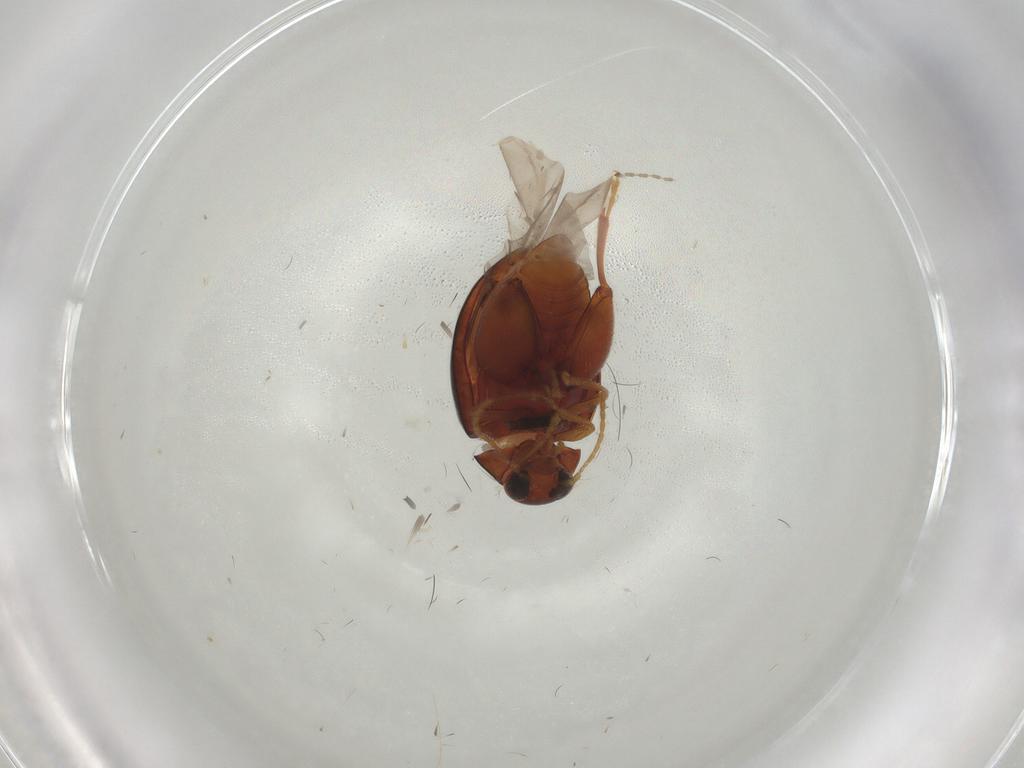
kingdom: Animalia
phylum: Arthropoda
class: Insecta
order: Coleoptera
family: Chrysomelidae
